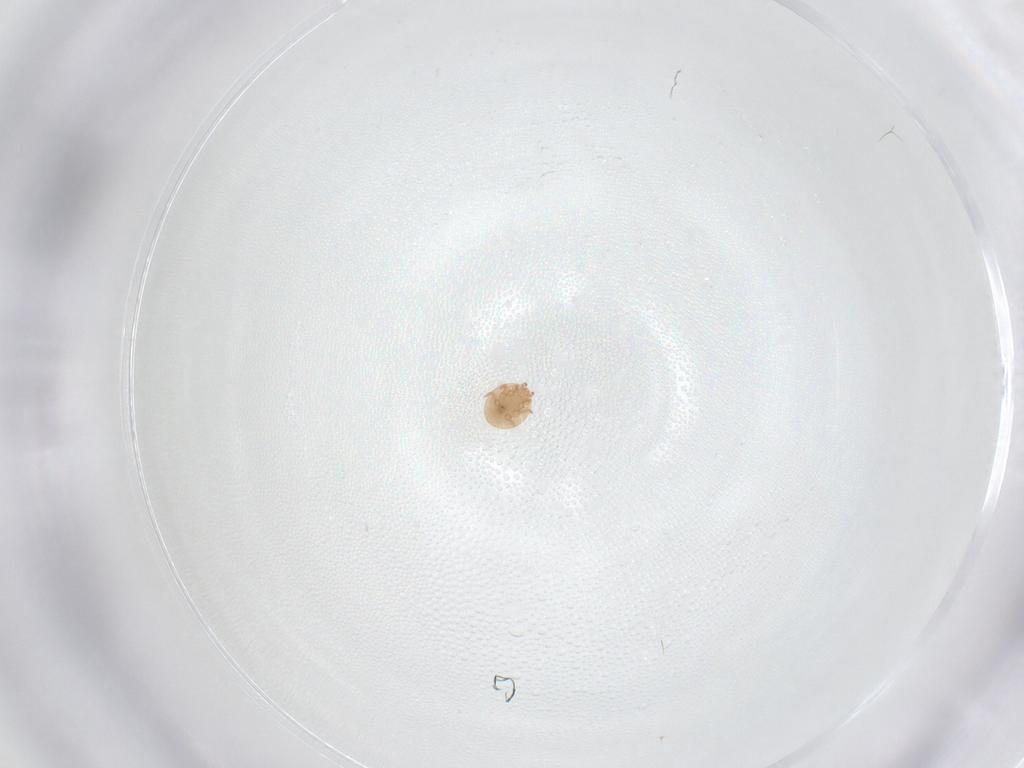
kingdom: Animalia
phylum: Arthropoda
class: Arachnida
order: Mesostigmata
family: Trematuridae
